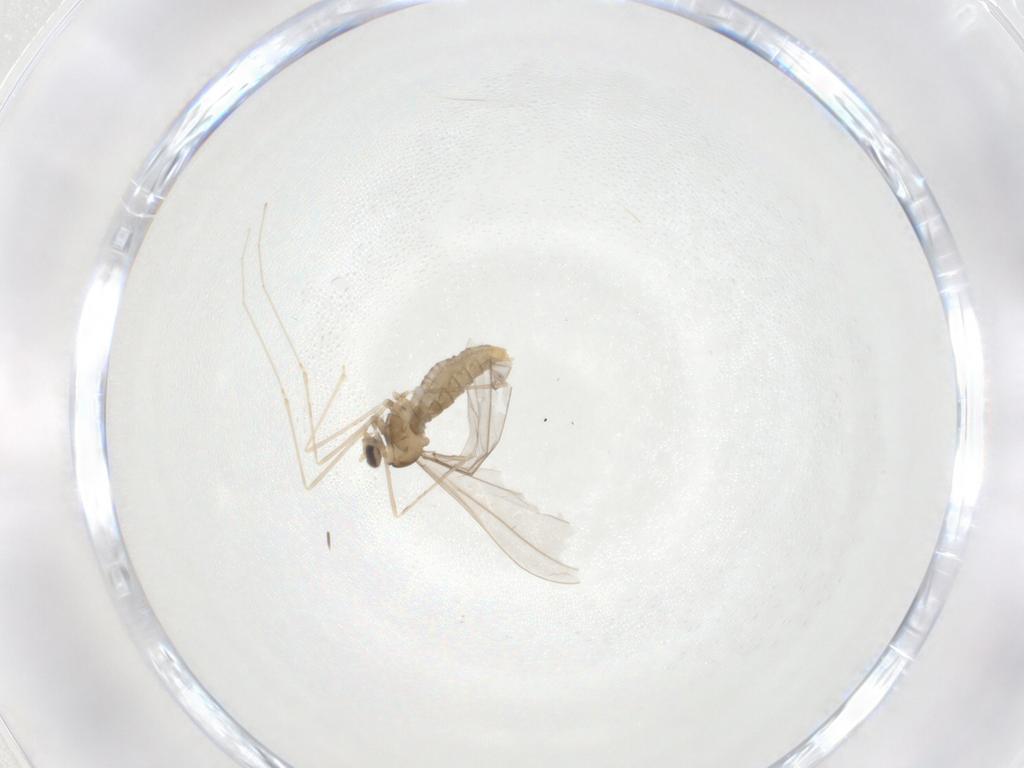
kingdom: Animalia
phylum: Arthropoda
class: Insecta
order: Diptera
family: Cecidomyiidae
